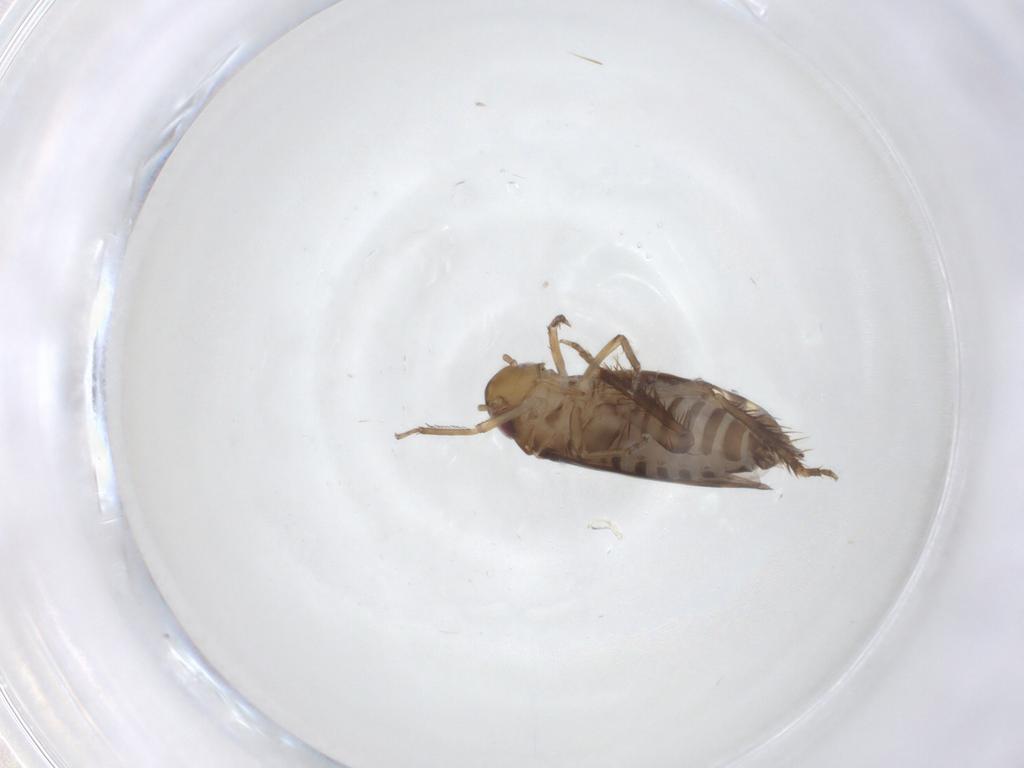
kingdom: Animalia
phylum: Arthropoda
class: Insecta
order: Hemiptera
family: Cicadellidae
